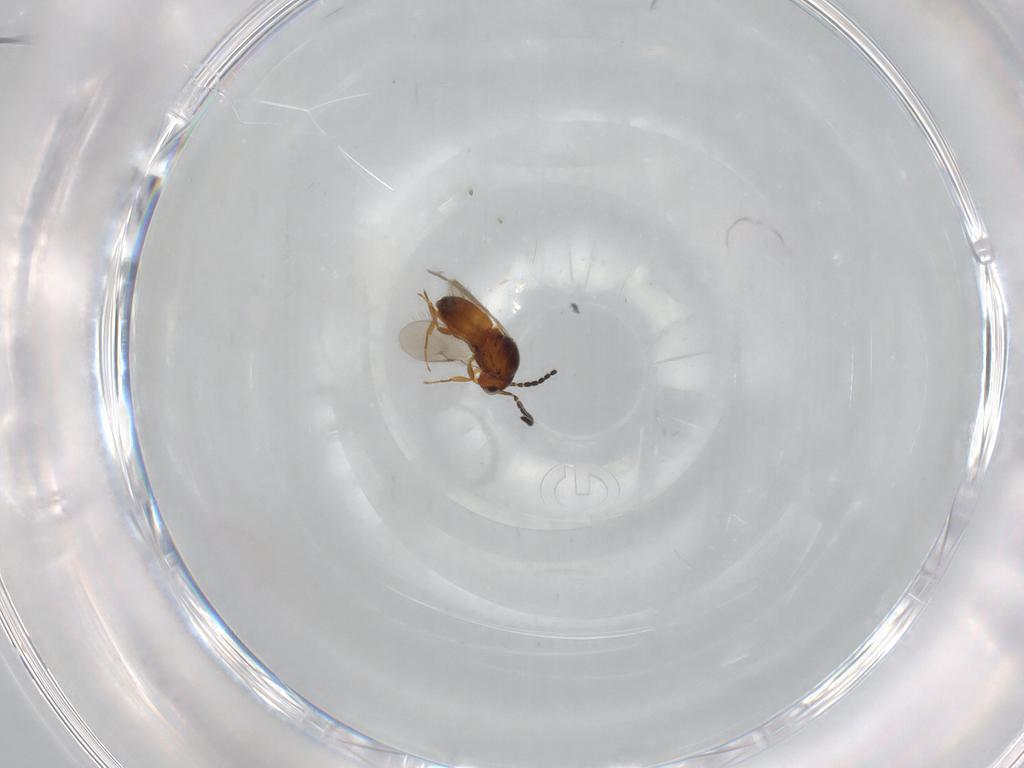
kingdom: Animalia
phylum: Arthropoda
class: Insecta
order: Hymenoptera
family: Scelionidae
